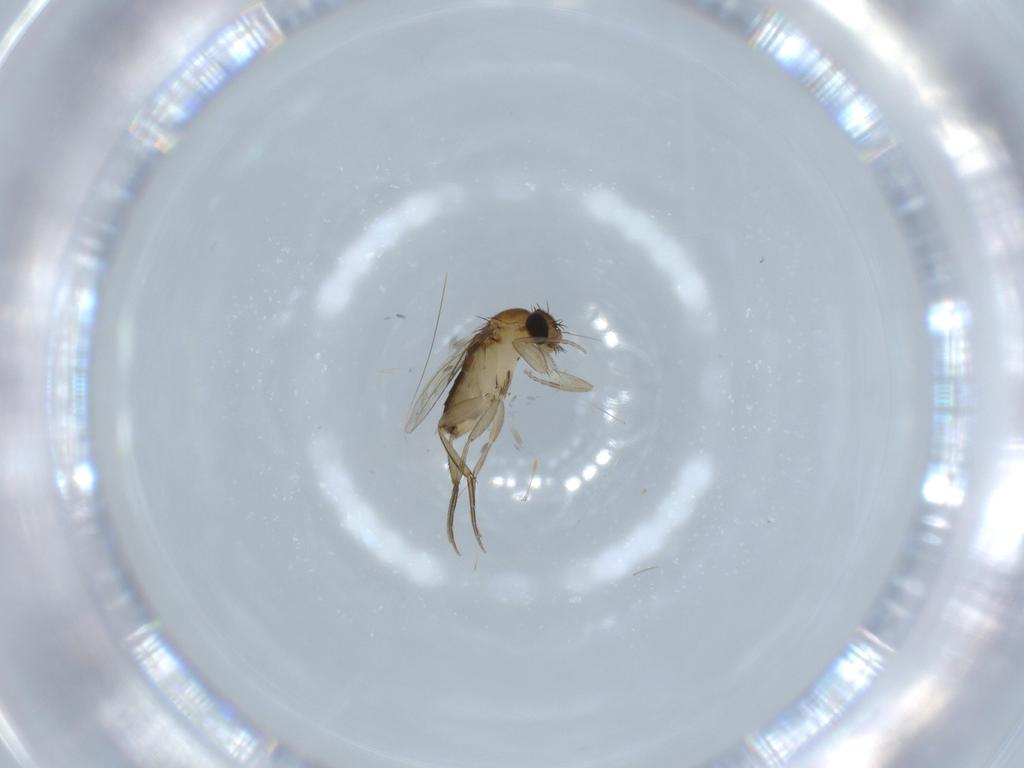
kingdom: Animalia
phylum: Arthropoda
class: Insecta
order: Diptera
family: Phoridae
